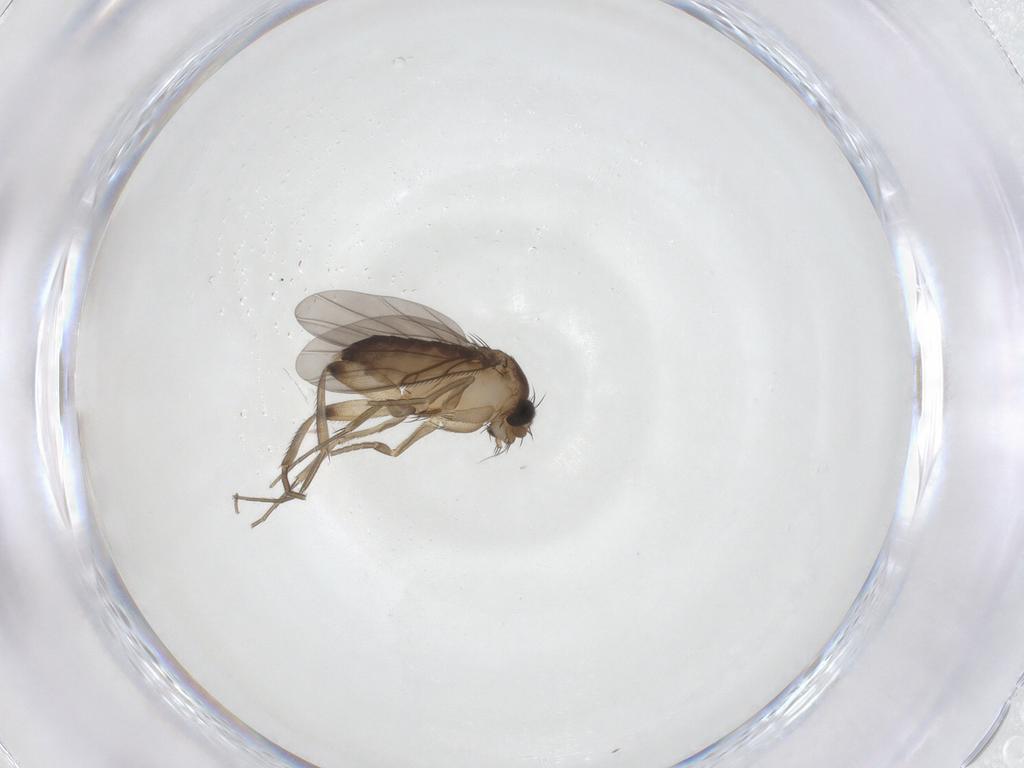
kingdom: Animalia
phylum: Arthropoda
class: Insecta
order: Diptera
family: Phoridae
